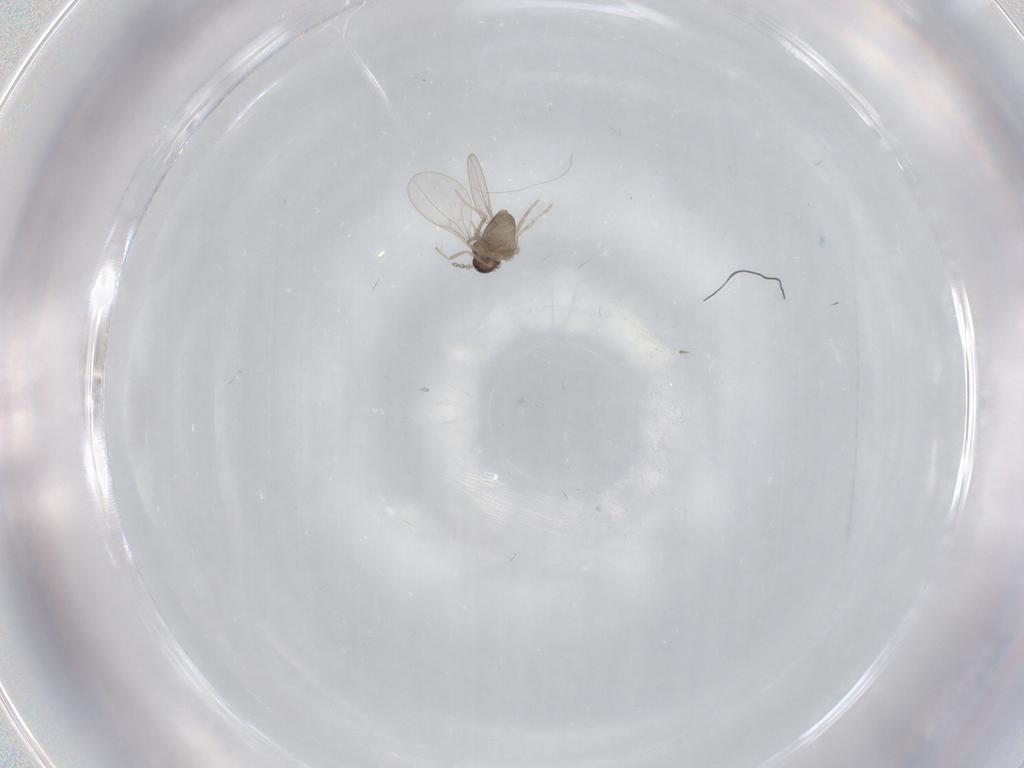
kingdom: Animalia
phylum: Arthropoda
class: Insecta
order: Diptera
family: Cecidomyiidae
